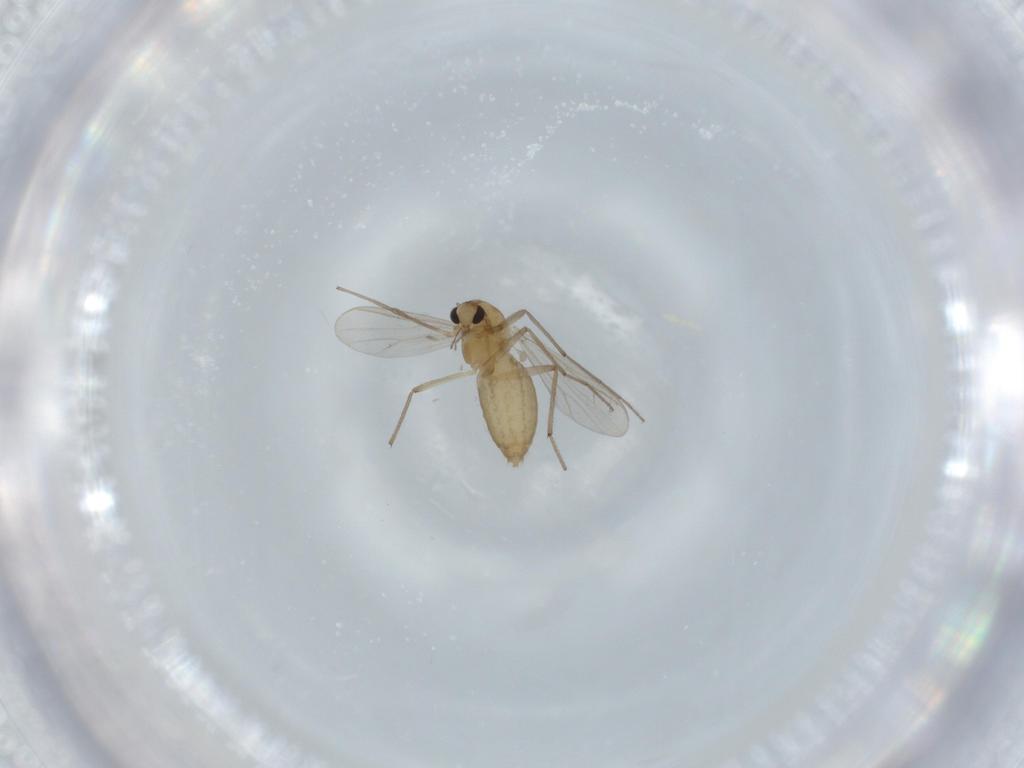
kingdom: Animalia
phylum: Arthropoda
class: Insecta
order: Diptera
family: Chironomidae
